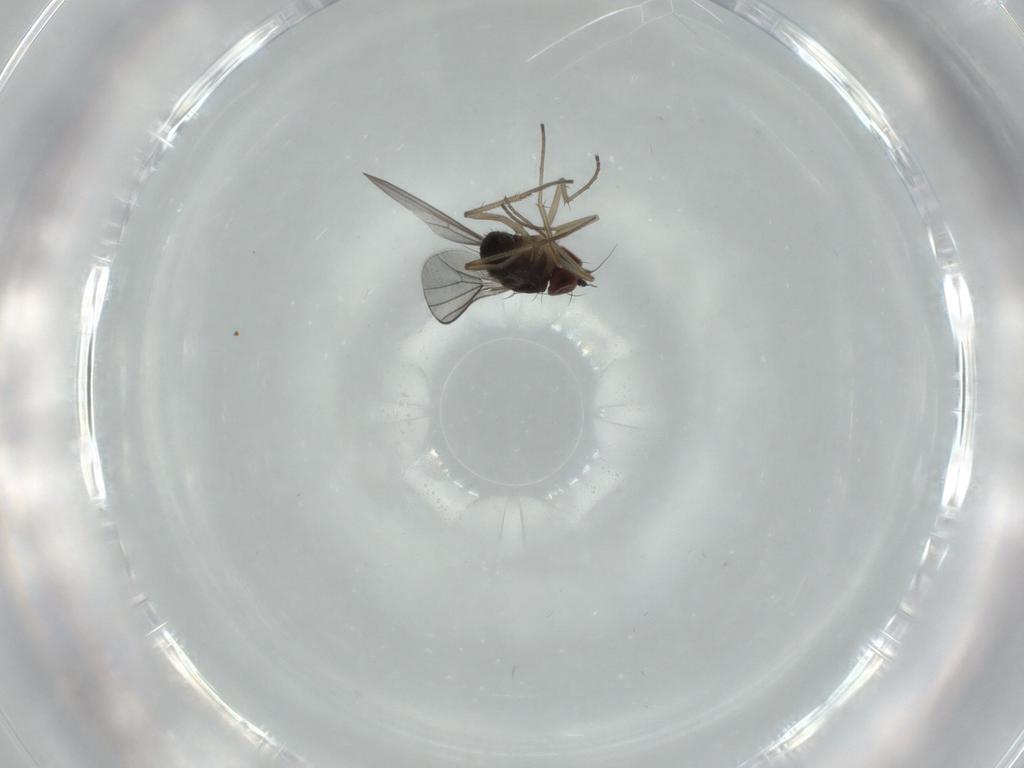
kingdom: Animalia
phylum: Arthropoda
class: Insecta
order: Diptera
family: Dolichopodidae
